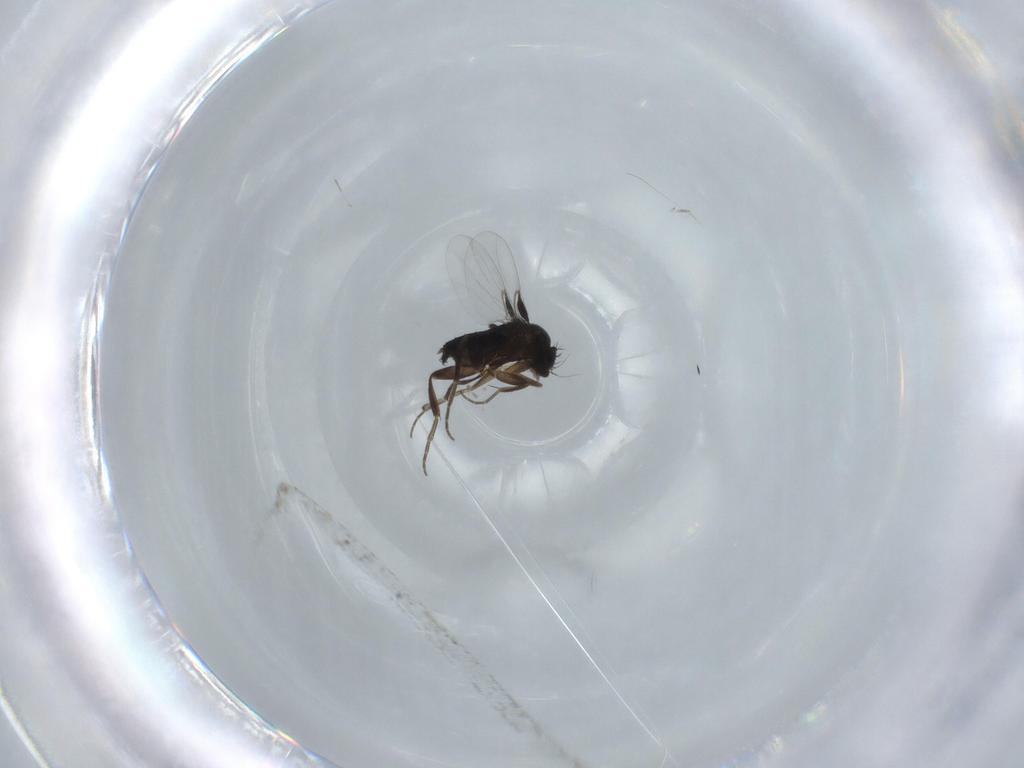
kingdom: Animalia
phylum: Arthropoda
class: Insecta
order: Diptera
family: Phoridae
